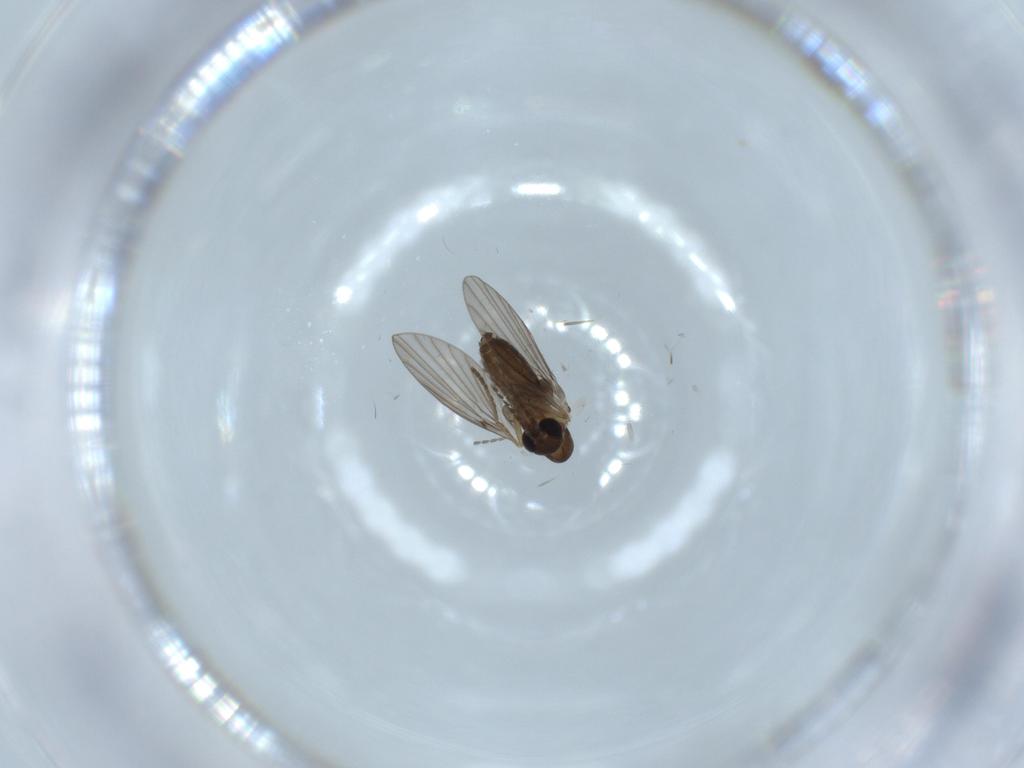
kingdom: Animalia
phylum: Arthropoda
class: Insecta
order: Diptera
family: Psychodidae
